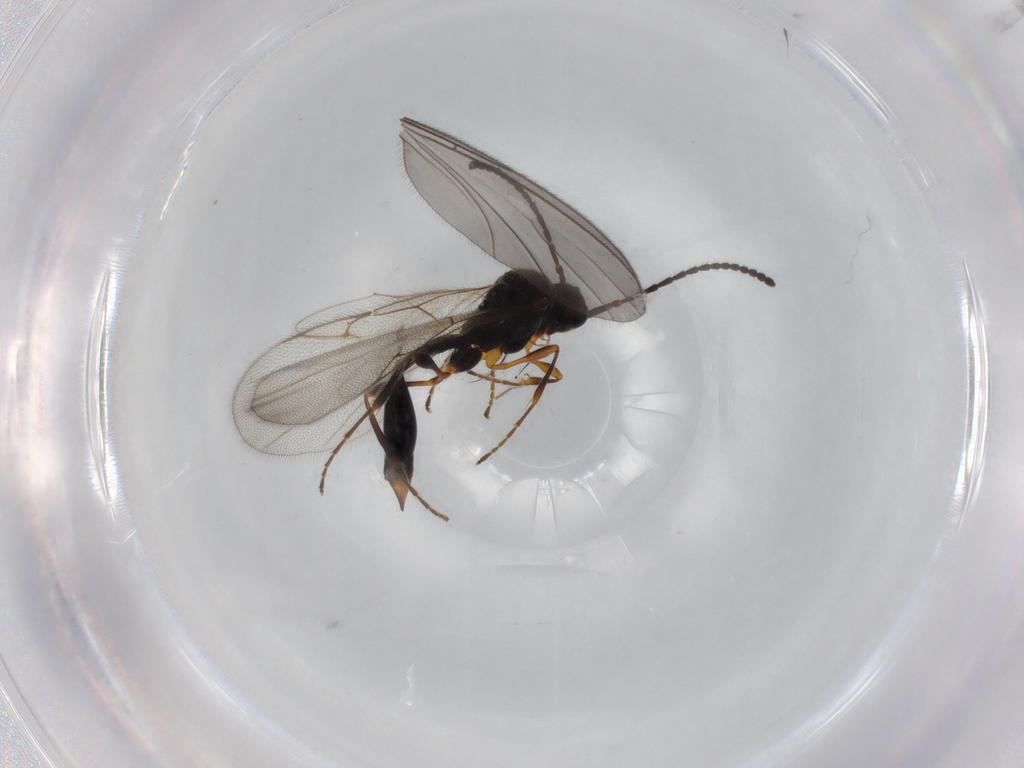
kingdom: Animalia
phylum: Arthropoda
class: Insecta
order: Hymenoptera
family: Diapriidae
